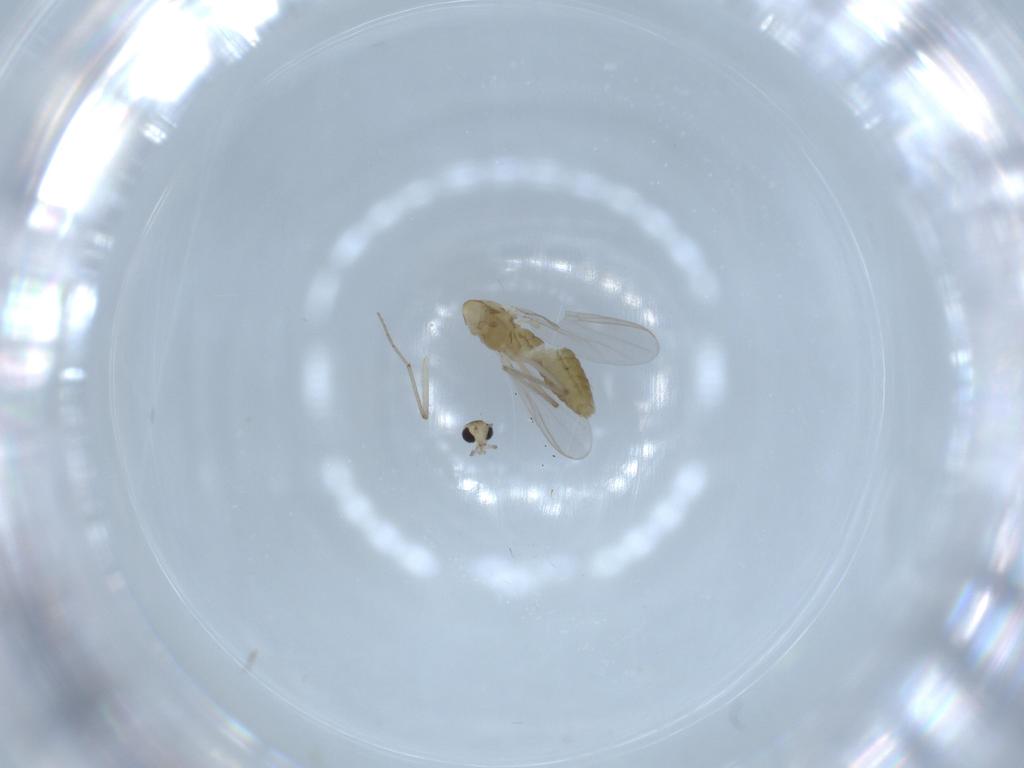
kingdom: Animalia
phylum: Arthropoda
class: Insecta
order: Diptera
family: Chironomidae
